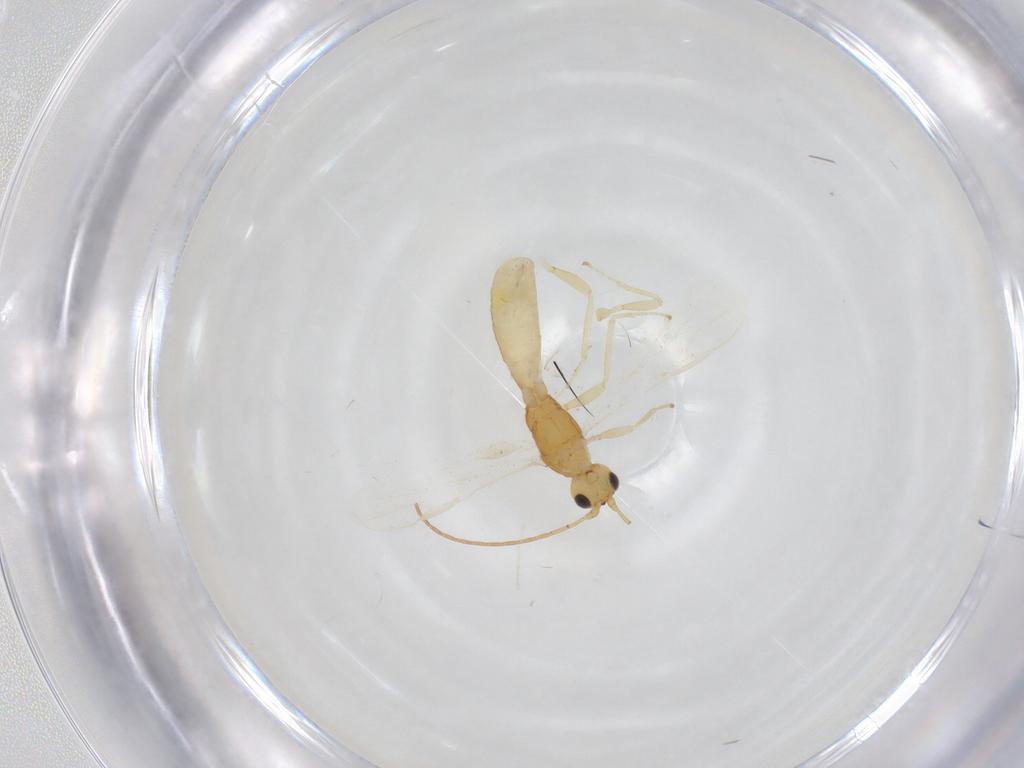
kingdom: Animalia
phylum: Arthropoda
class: Insecta
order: Hymenoptera
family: Braconidae
